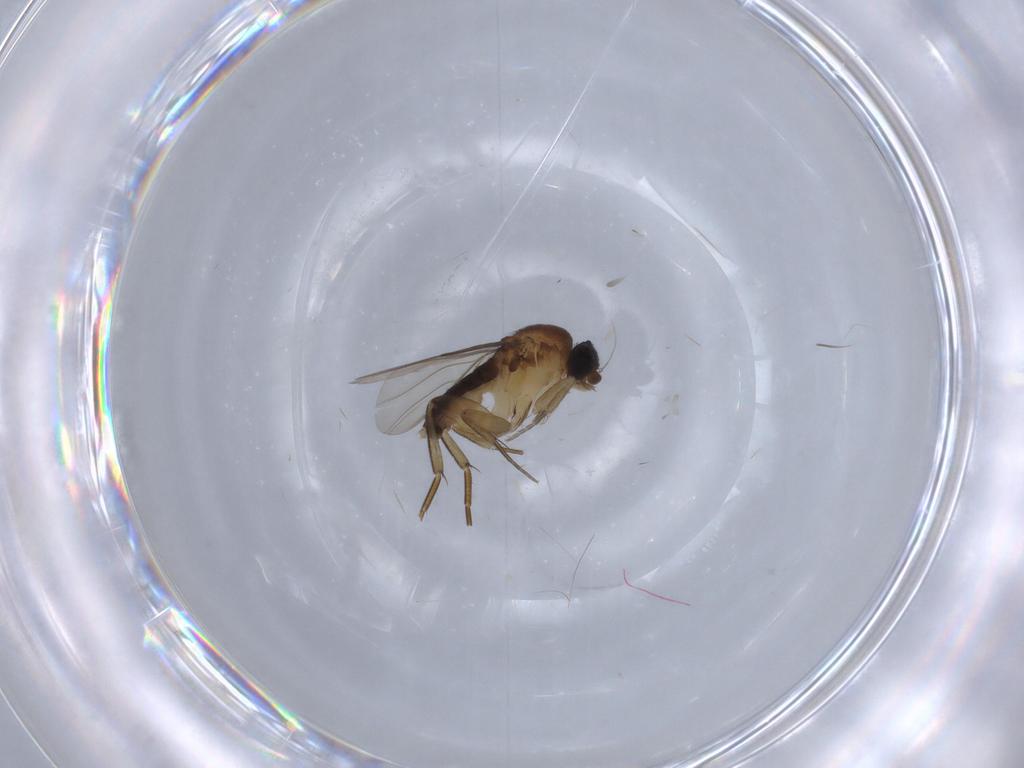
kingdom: Animalia
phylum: Arthropoda
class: Insecta
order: Diptera
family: Phoridae
